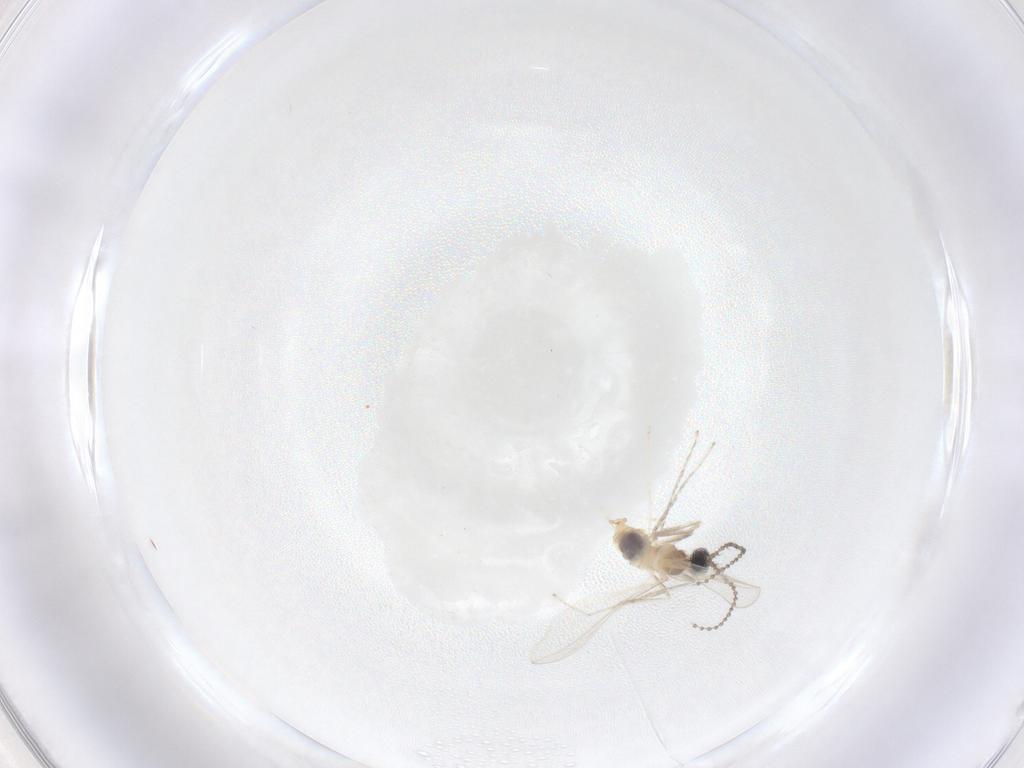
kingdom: Animalia
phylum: Arthropoda
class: Insecta
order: Diptera
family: Cecidomyiidae
